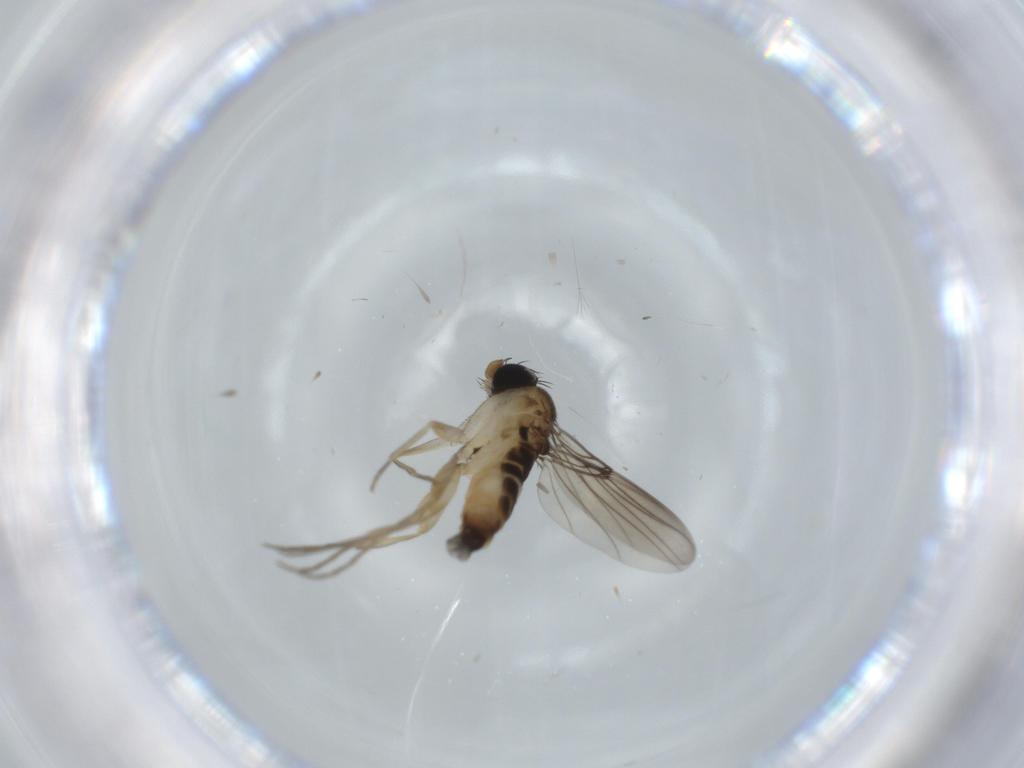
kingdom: Animalia
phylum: Arthropoda
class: Insecta
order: Diptera
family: Phoridae
